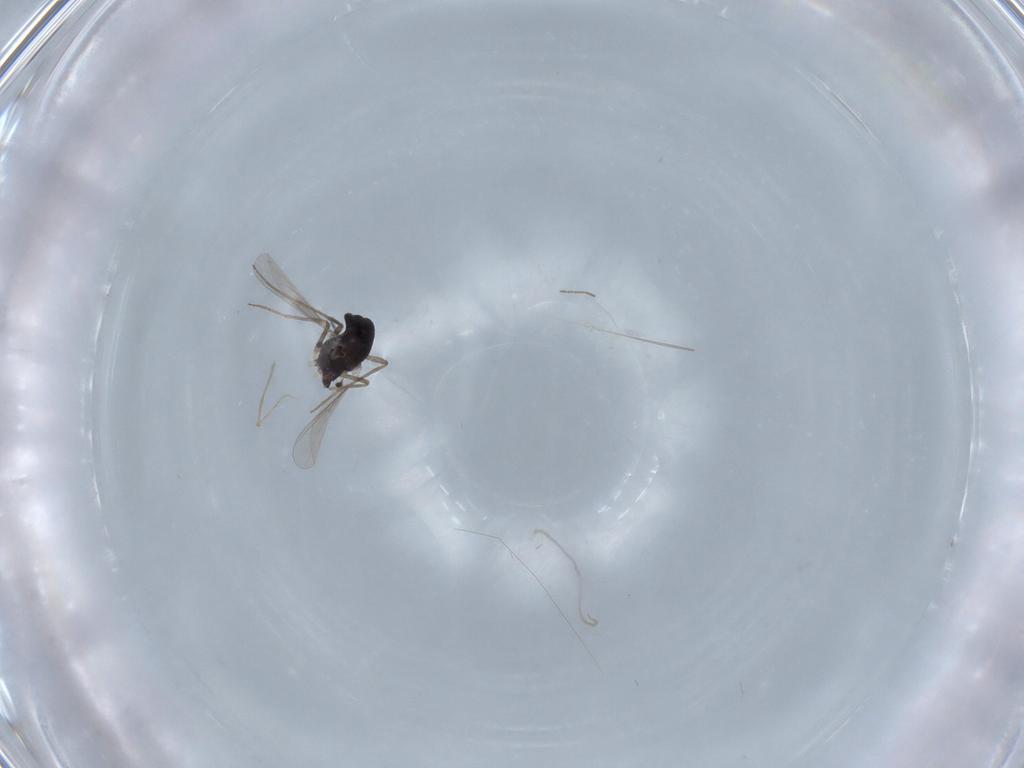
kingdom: Animalia
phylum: Arthropoda
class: Insecta
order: Diptera
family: Chironomidae
